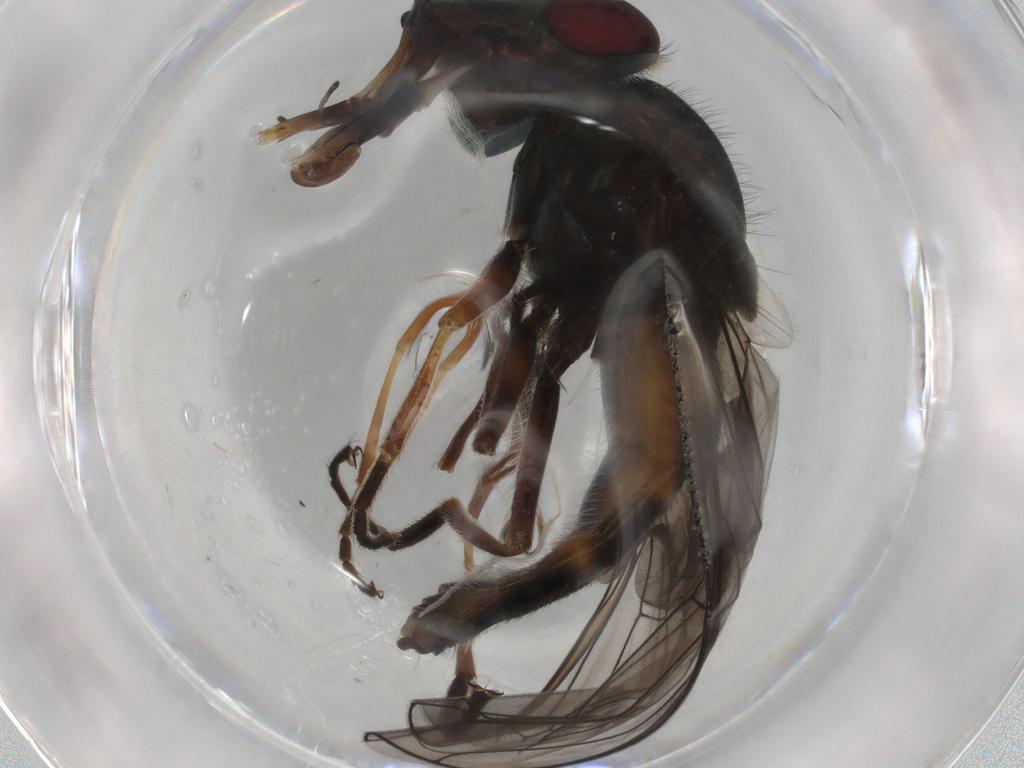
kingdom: Animalia
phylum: Arthropoda
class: Insecta
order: Diptera
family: Syrphidae
